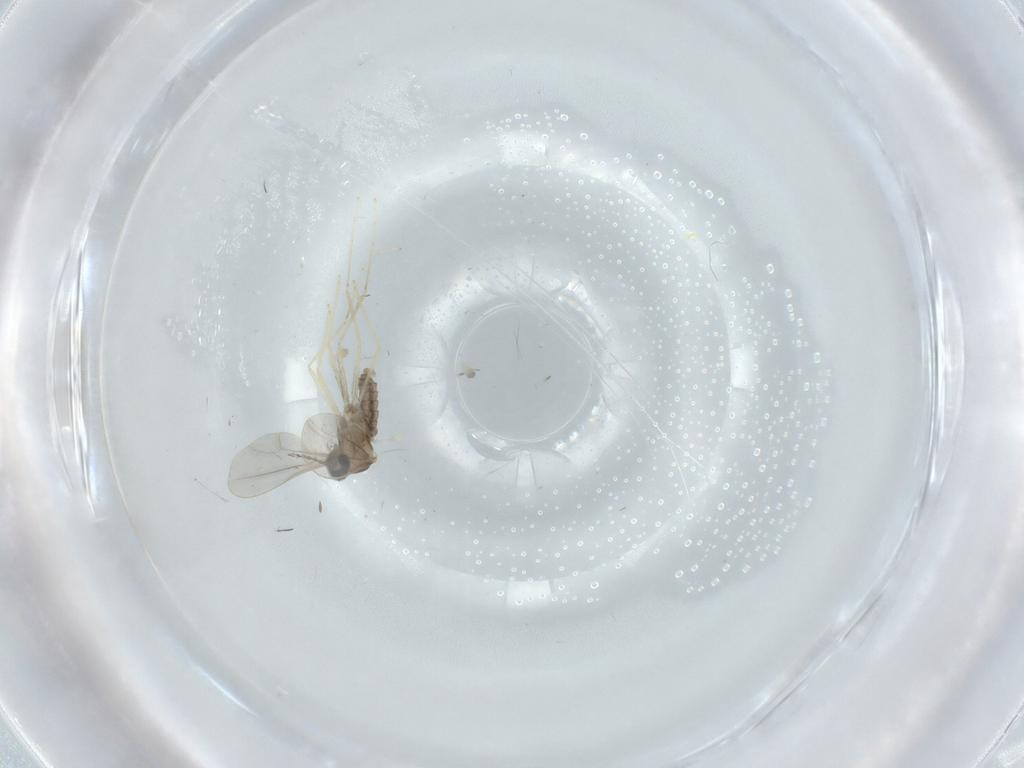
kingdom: Animalia
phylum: Arthropoda
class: Insecta
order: Diptera
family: Cecidomyiidae
